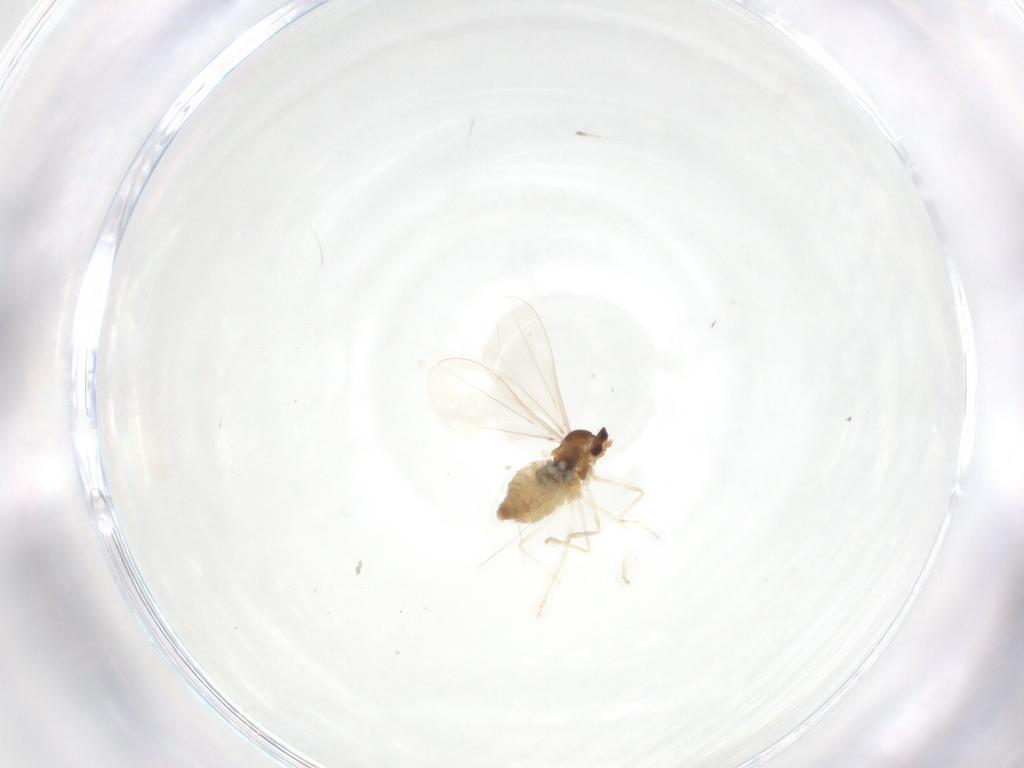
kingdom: Animalia
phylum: Arthropoda
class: Insecta
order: Diptera
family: Cecidomyiidae
